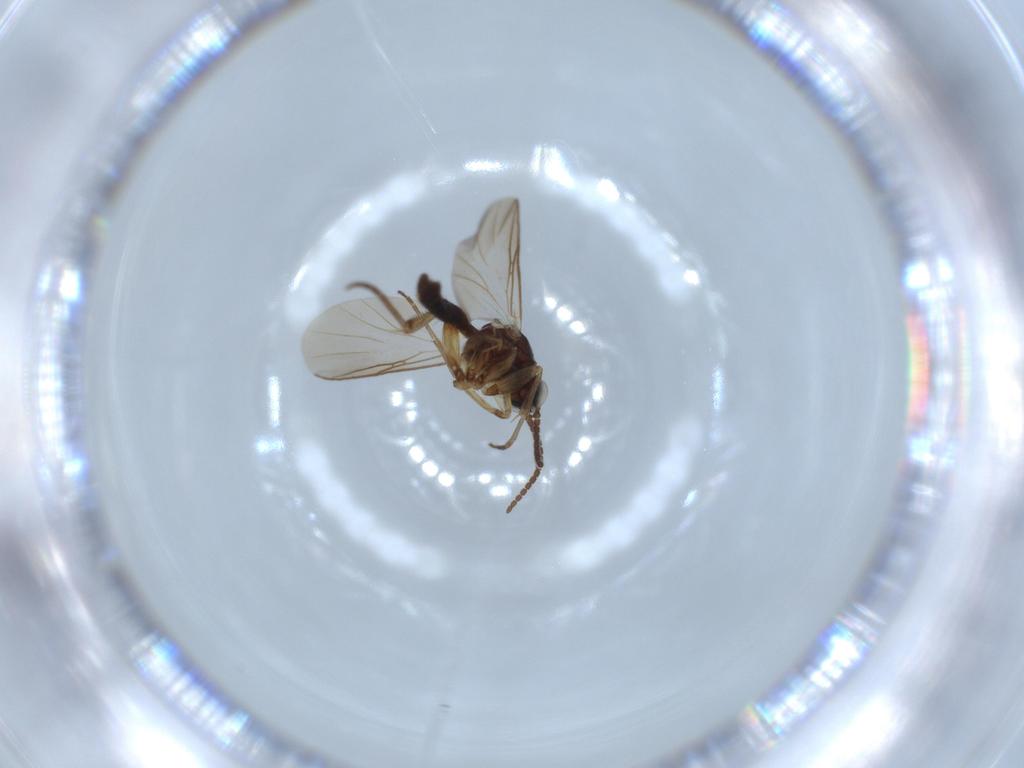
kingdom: Animalia
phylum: Arthropoda
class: Insecta
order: Diptera
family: Mycetophilidae
